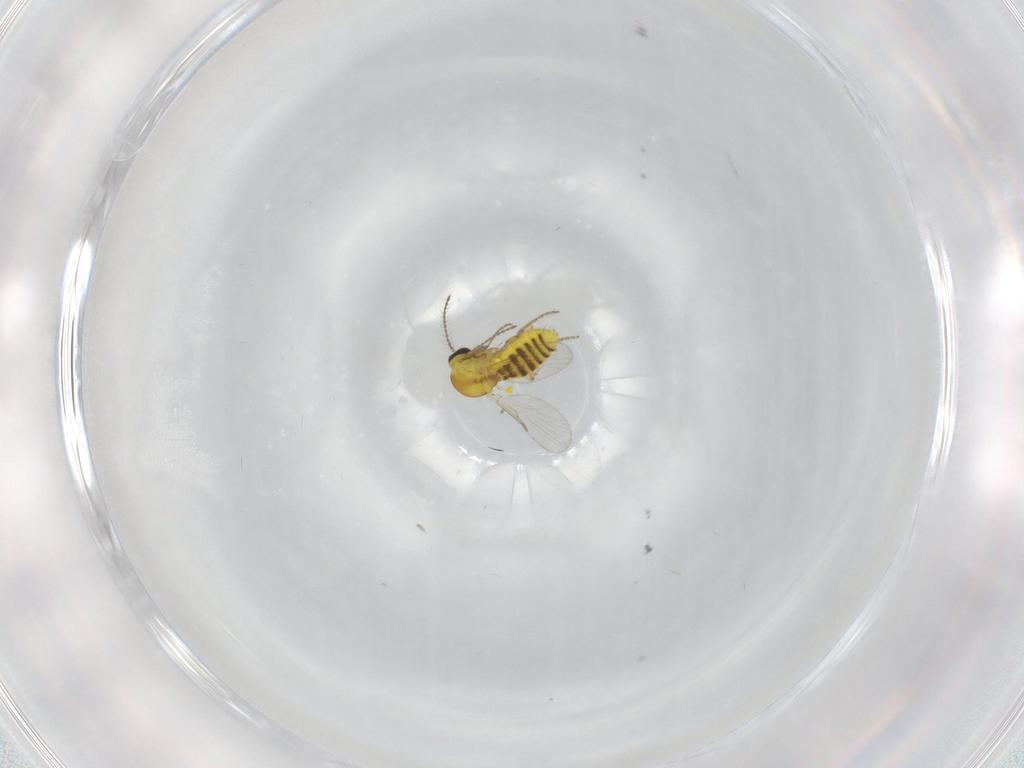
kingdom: Animalia
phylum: Arthropoda
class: Insecta
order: Diptera
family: Ceratopogonidae
